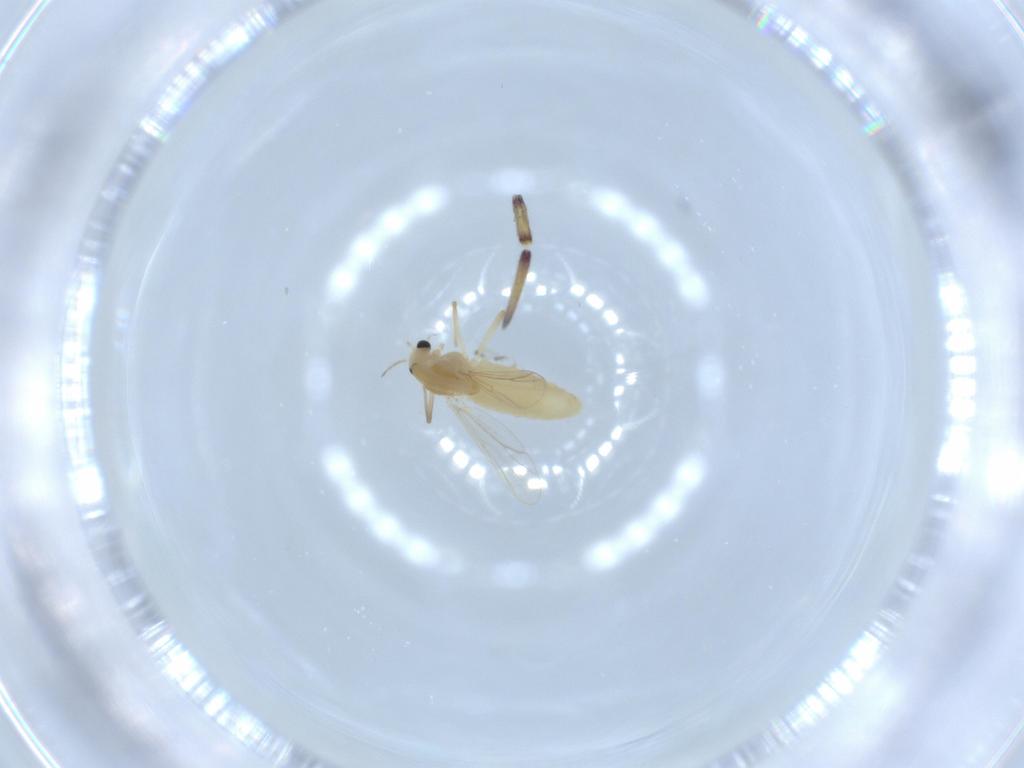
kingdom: Animalia
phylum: Arthropoda
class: Insecta
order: Diptera
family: Chironomidae
